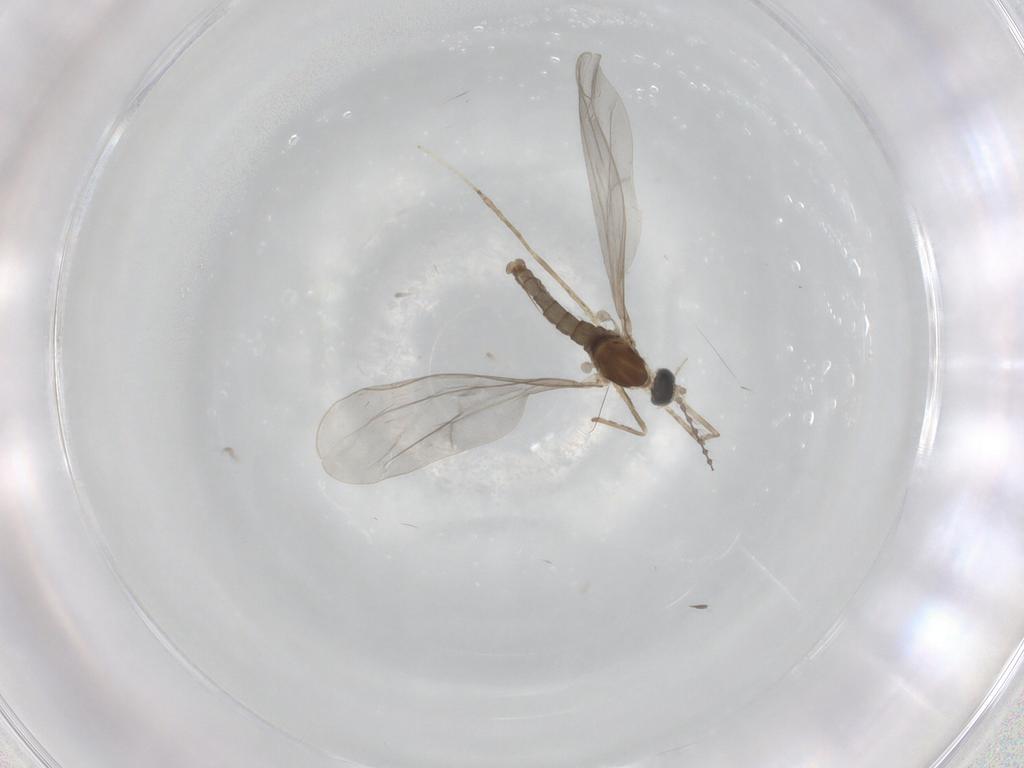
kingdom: Animalia
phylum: Arthropoda
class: Insecta
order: Diptera
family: Cecidomyiidae
